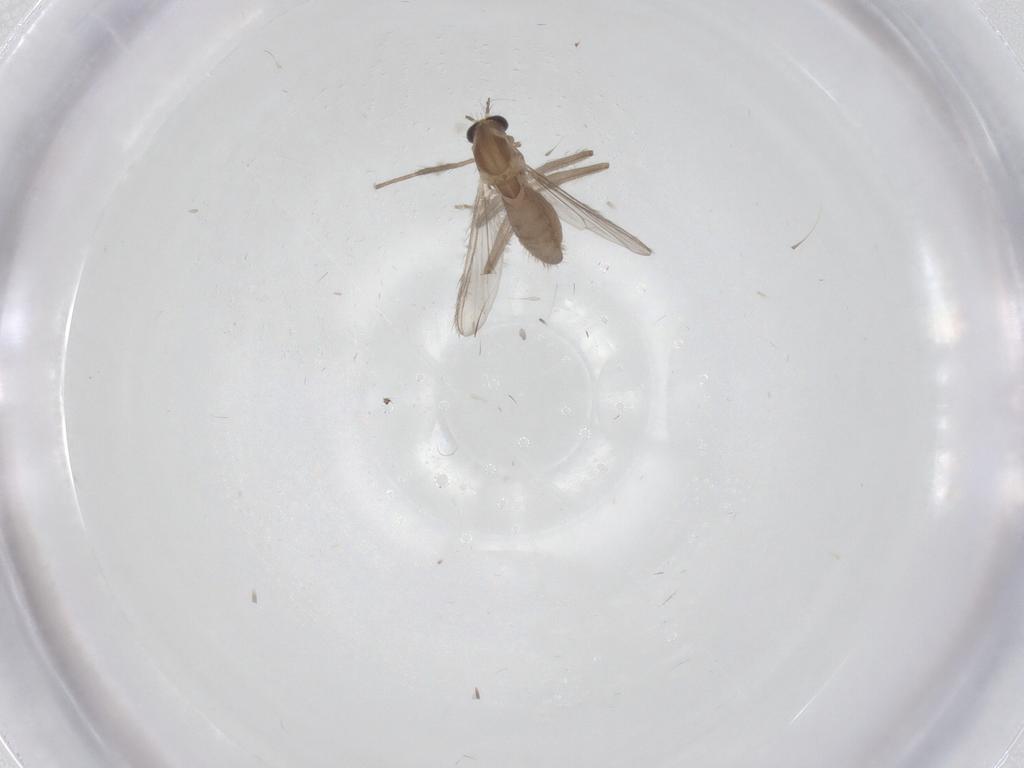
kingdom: Animalia
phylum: Arthropoda
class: Insecta
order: Diptera
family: Chironomidae
